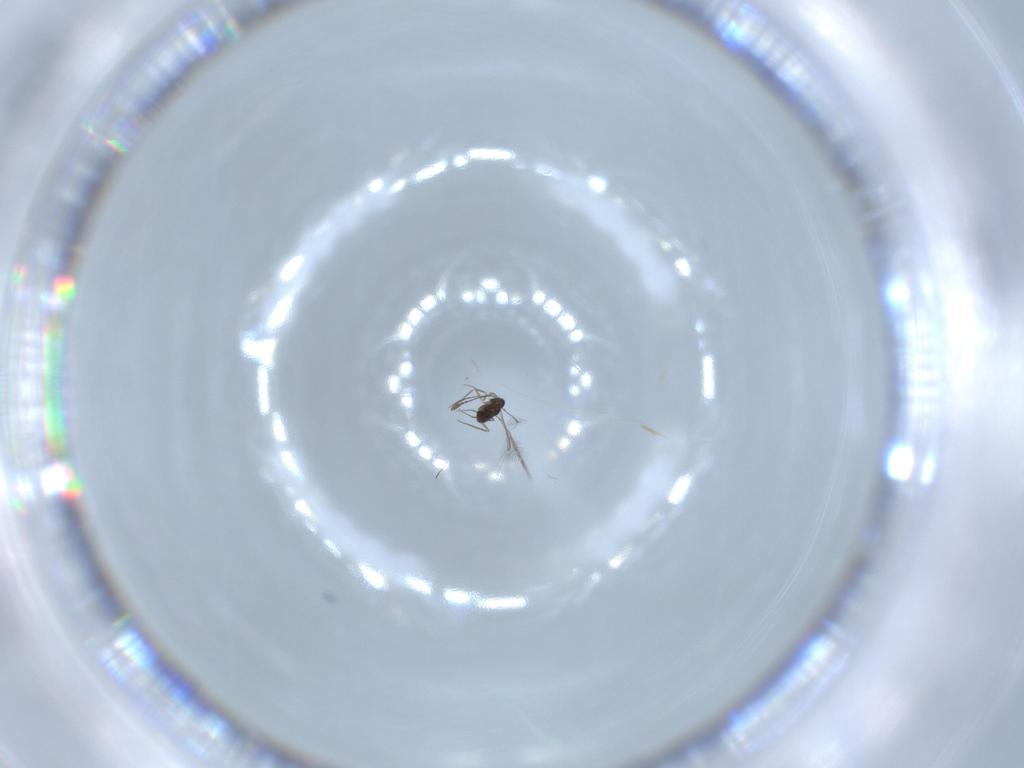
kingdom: Animalia
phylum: Arthropoda
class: Insecta
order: Hymenoptera
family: Mymaridae
